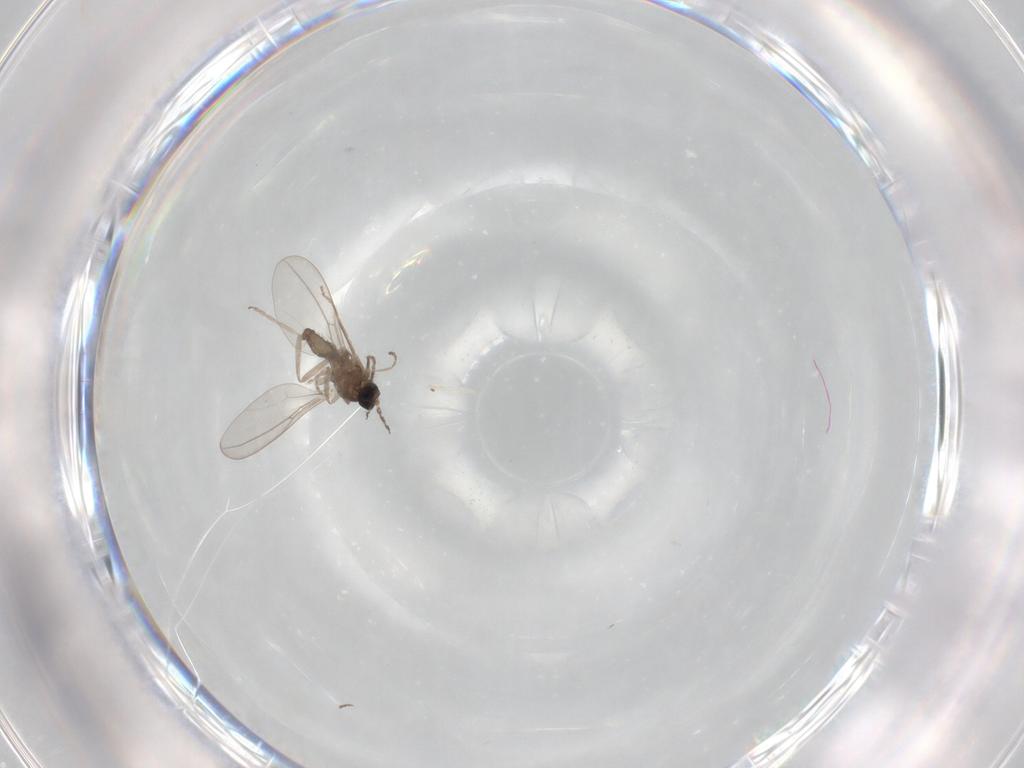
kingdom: Animalia
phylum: Arthropoda
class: Insecta
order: Diptera
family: Cecidomyiidae
